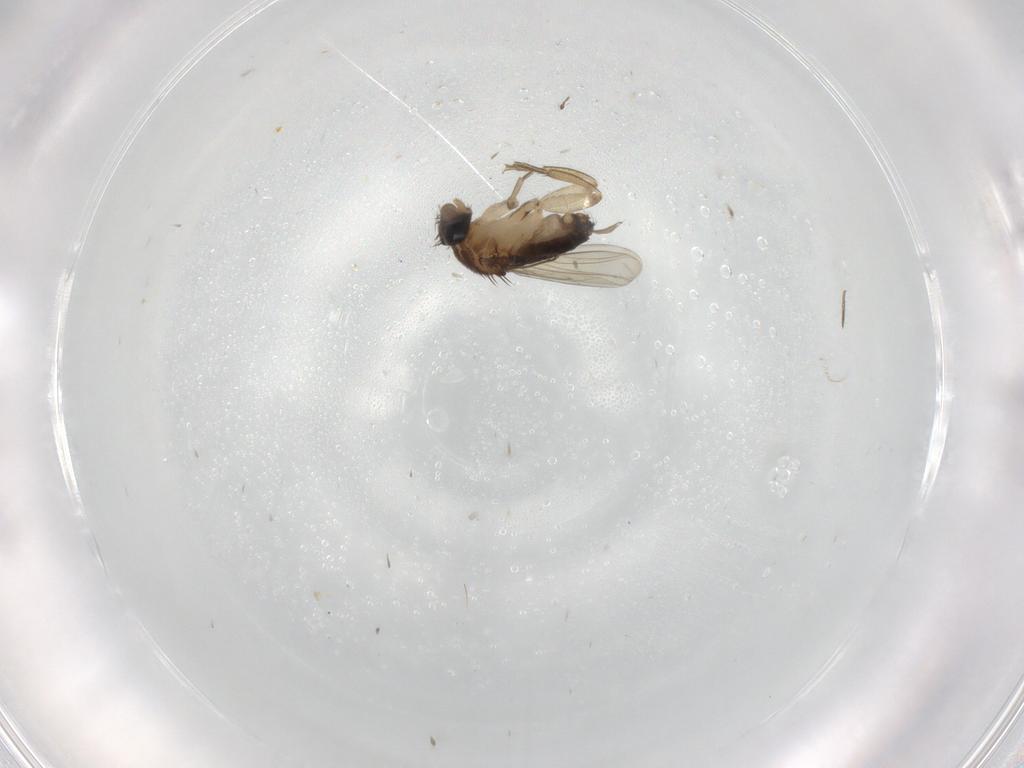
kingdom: Animalia
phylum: Arthropoda
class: Insecta
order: Diptera
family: Phoridae
